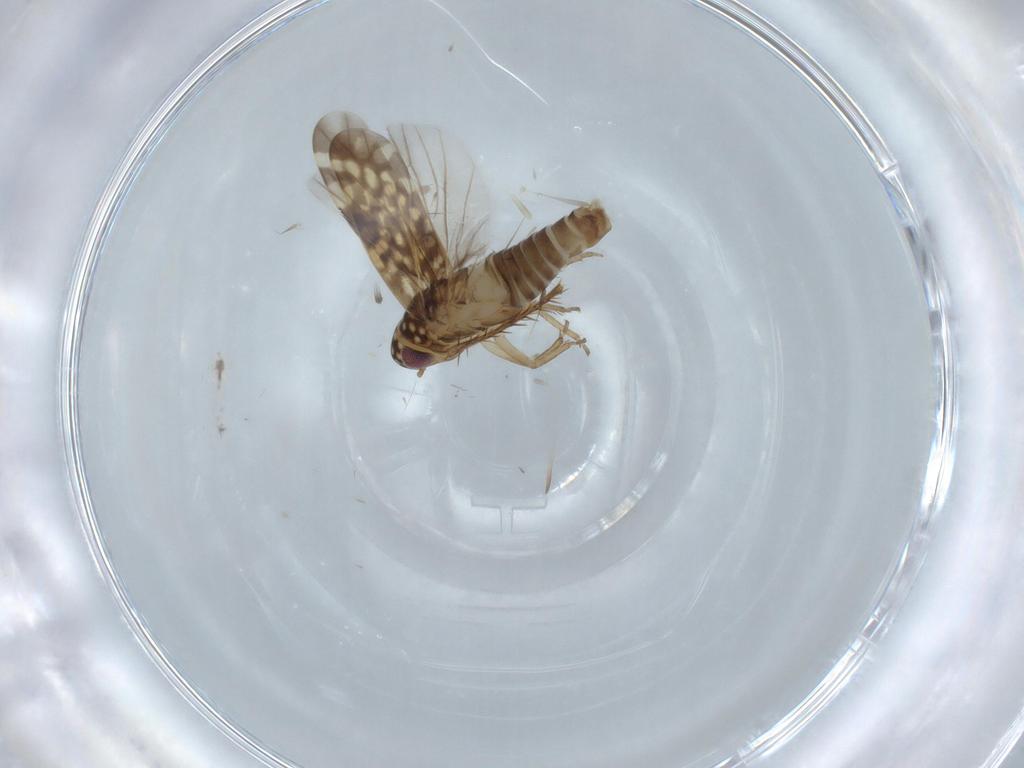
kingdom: Animalia
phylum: Arthropoda
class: Insecta
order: Hemiptera
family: Cicadellidae
